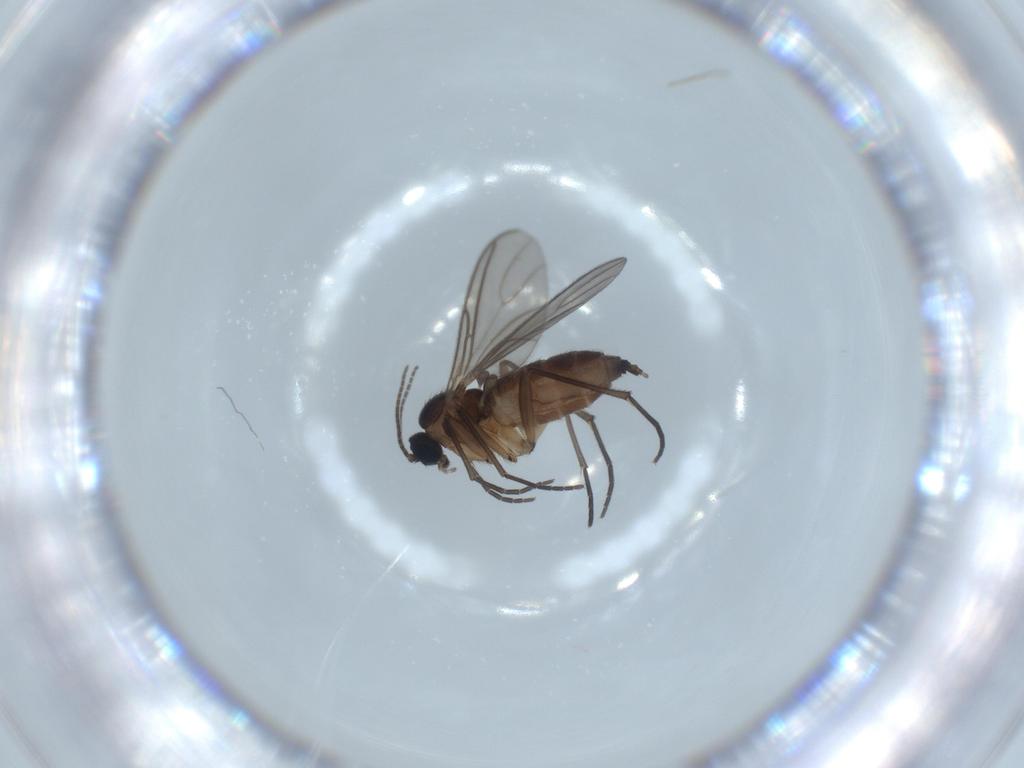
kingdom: Animalia
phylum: Arthropoda
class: Insecta
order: Diptera
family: Sciaridae
